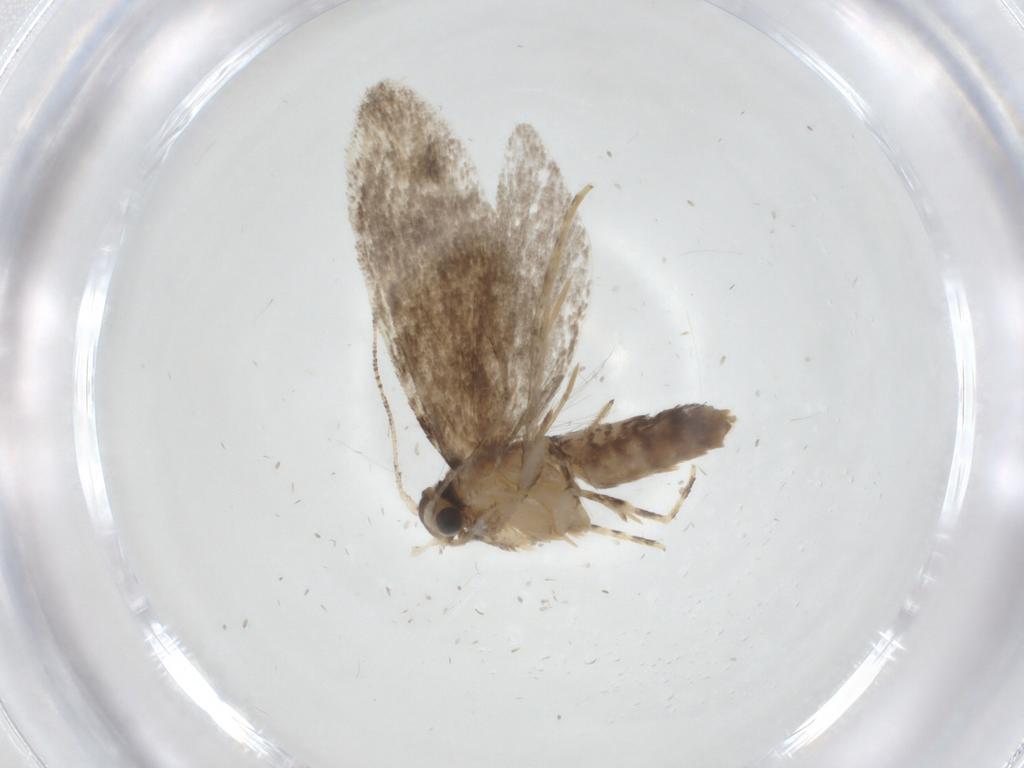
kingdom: Animalia
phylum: Arthropoda
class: Insecta
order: Lepidoptera
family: Tineidae
